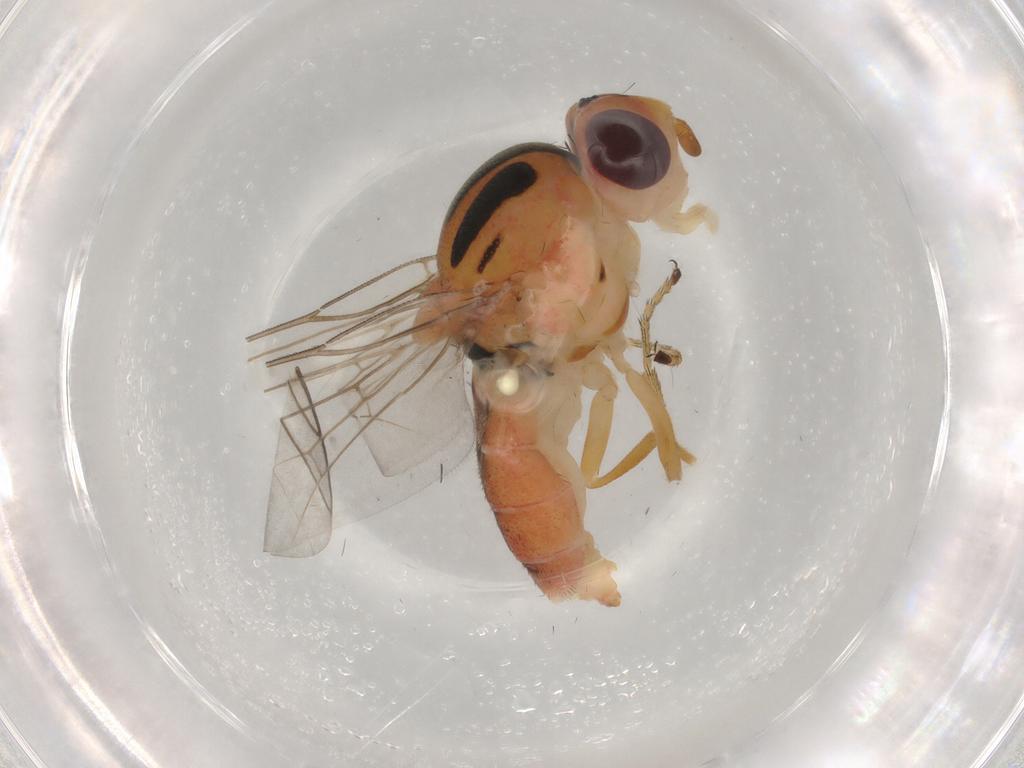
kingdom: Animalia
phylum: Arthropoda
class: Insecta
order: Diptera
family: Chloropidae
